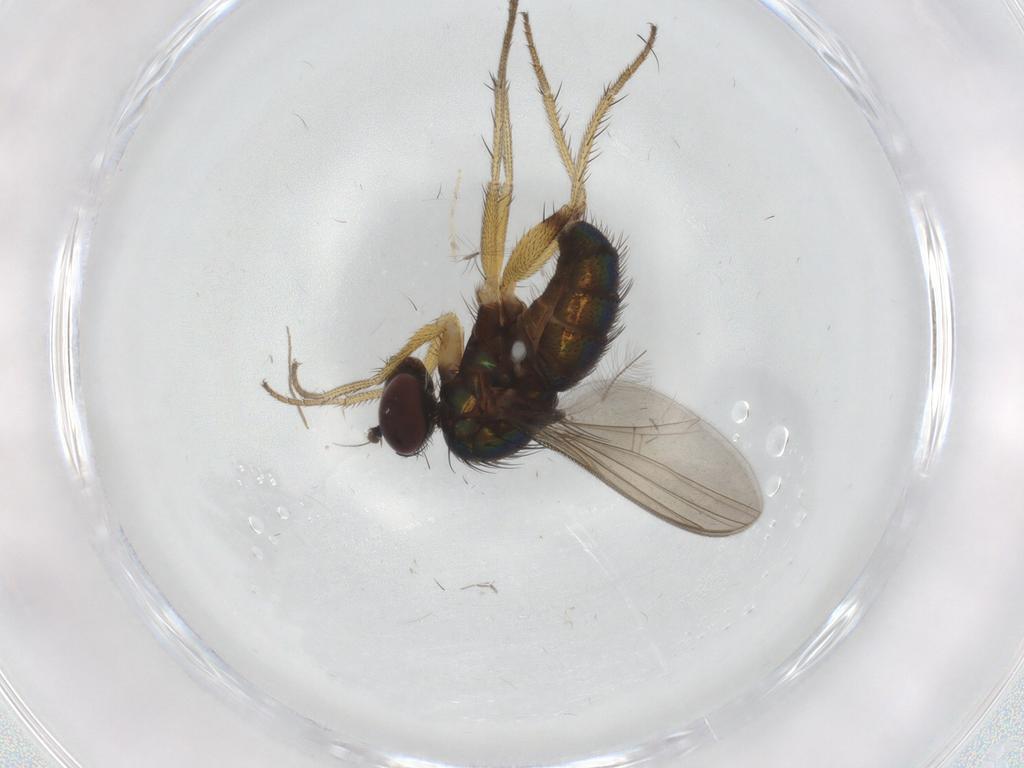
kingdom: Animalia
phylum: Arthropoda
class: Insecta
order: Diptera
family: Dolichopodidae
